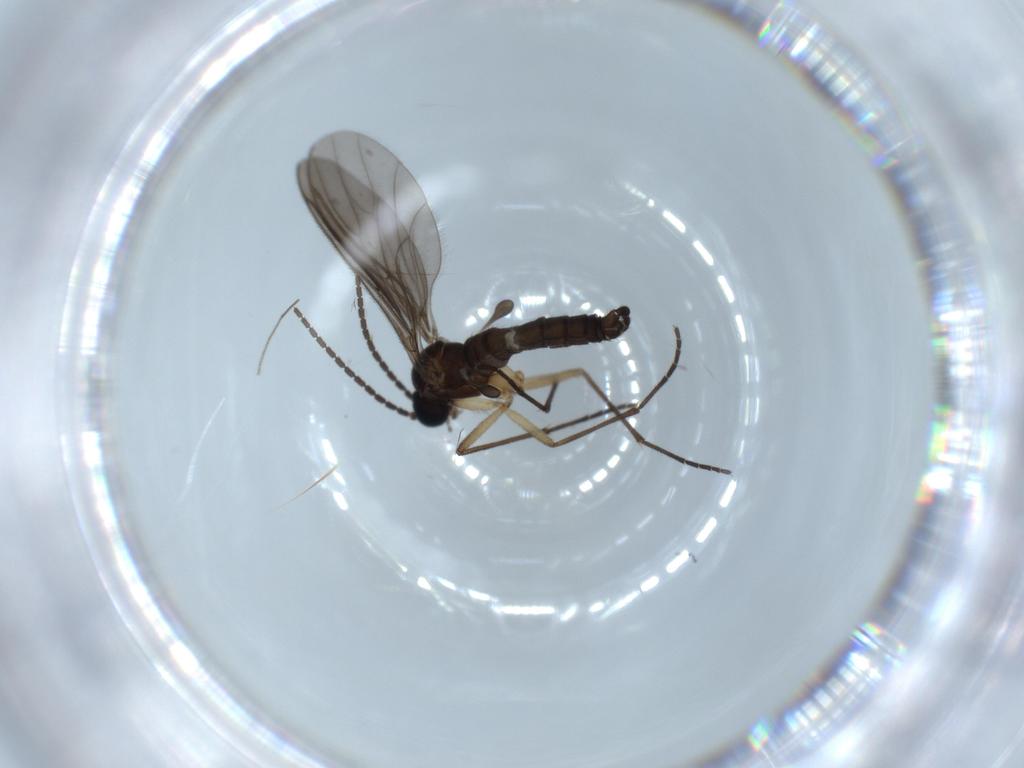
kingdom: Animalia
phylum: Arthropoda
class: Insecta
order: Diptera
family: Sciaridae
